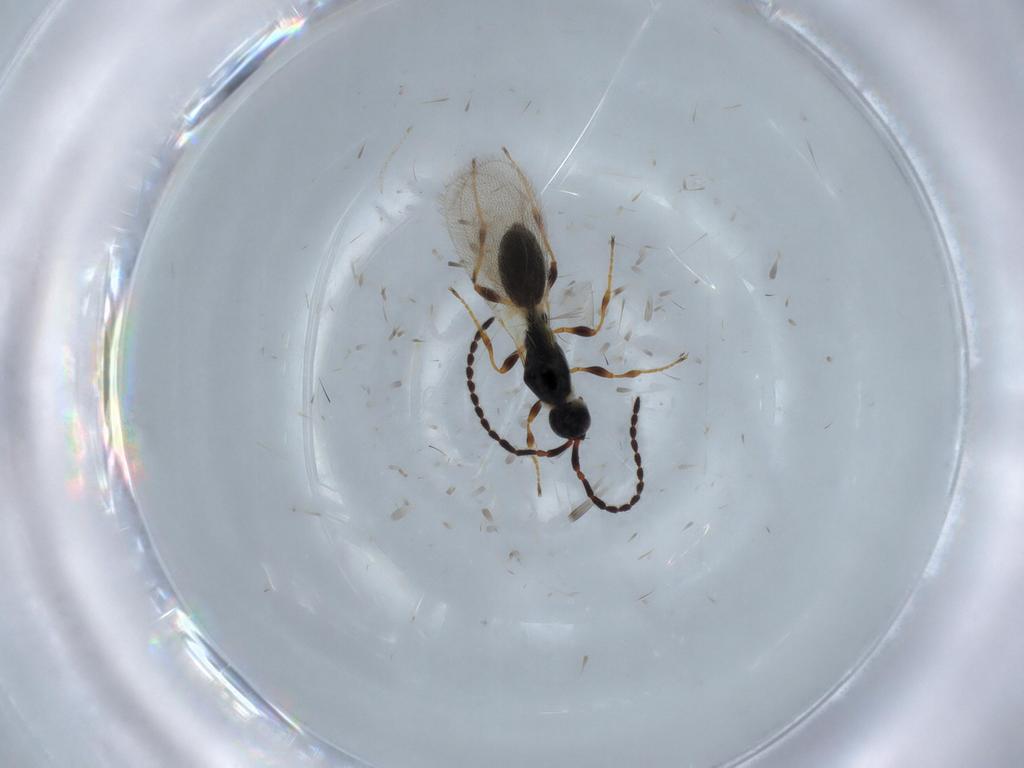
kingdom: Animalia
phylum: Arthropoda
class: Insecta
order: Hymenoptera
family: Diapriidae
